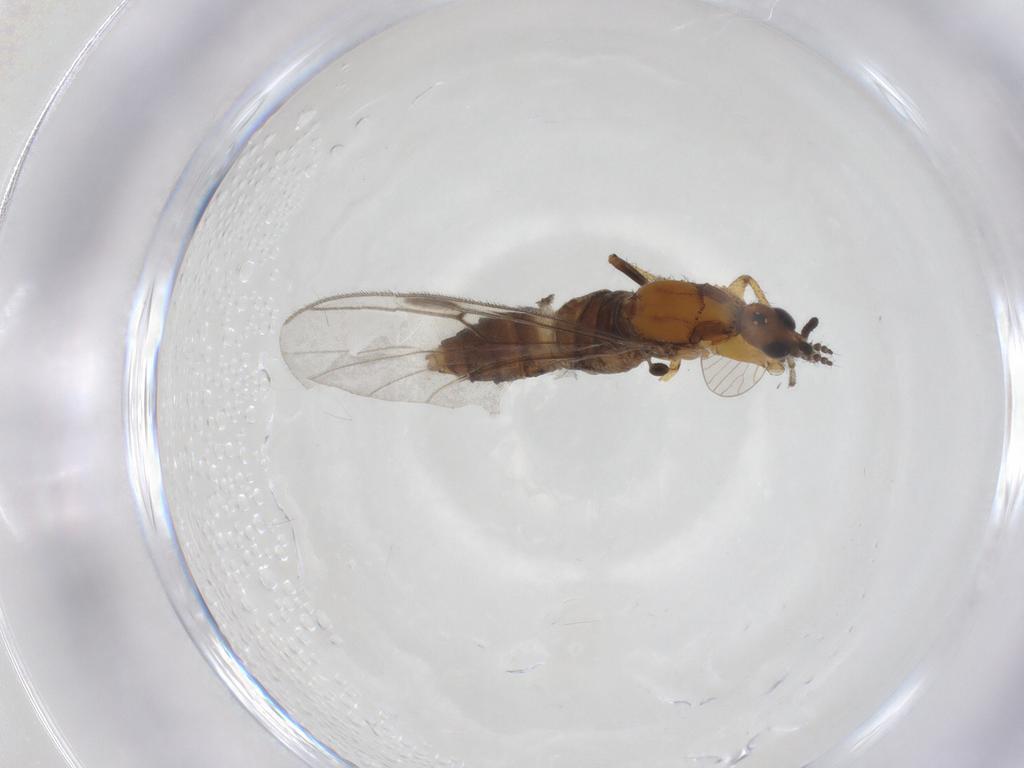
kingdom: Animalia
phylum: Arthropoda
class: Insecta
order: Diptera
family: Bibionidae
